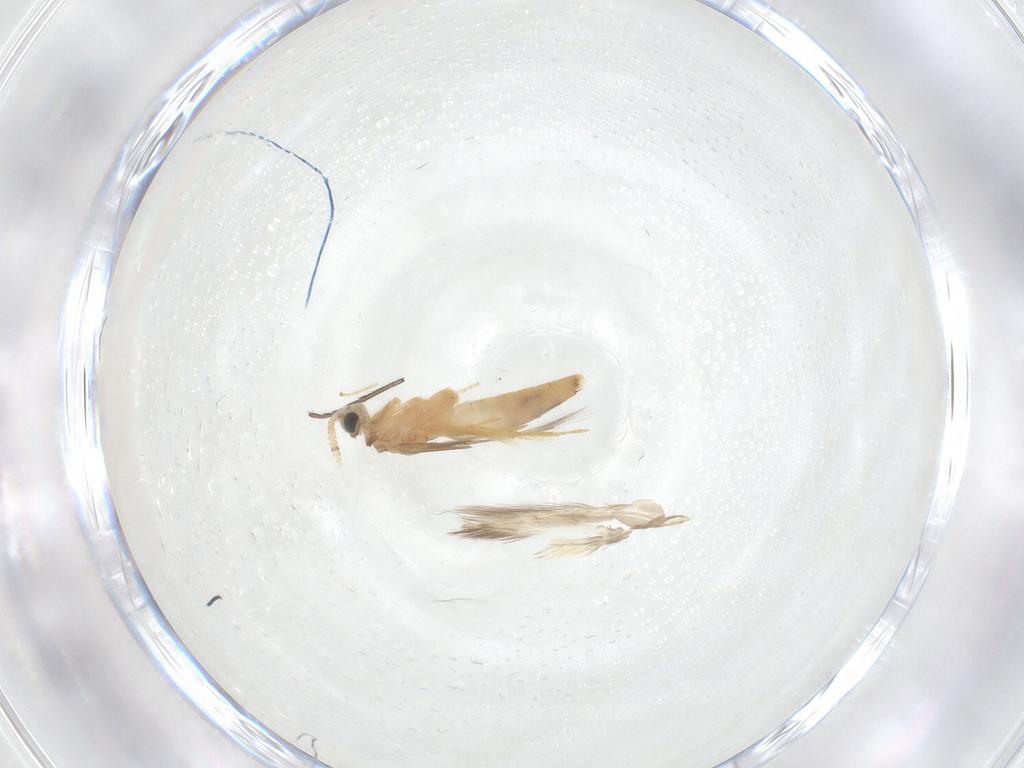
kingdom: Animalia
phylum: Arthropoda
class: Insecta
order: Trichoptera
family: Hydroptilidae
